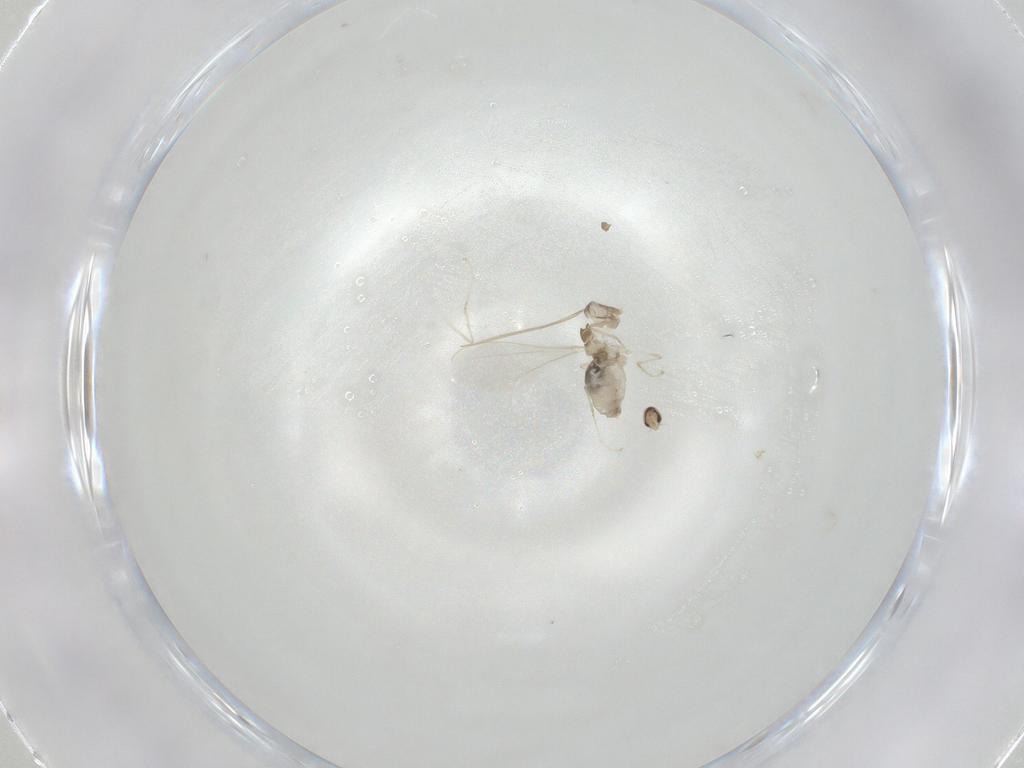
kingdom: Animalia
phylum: Arthropoda
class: Insecta
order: Diptera
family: Cecidomyiidae
